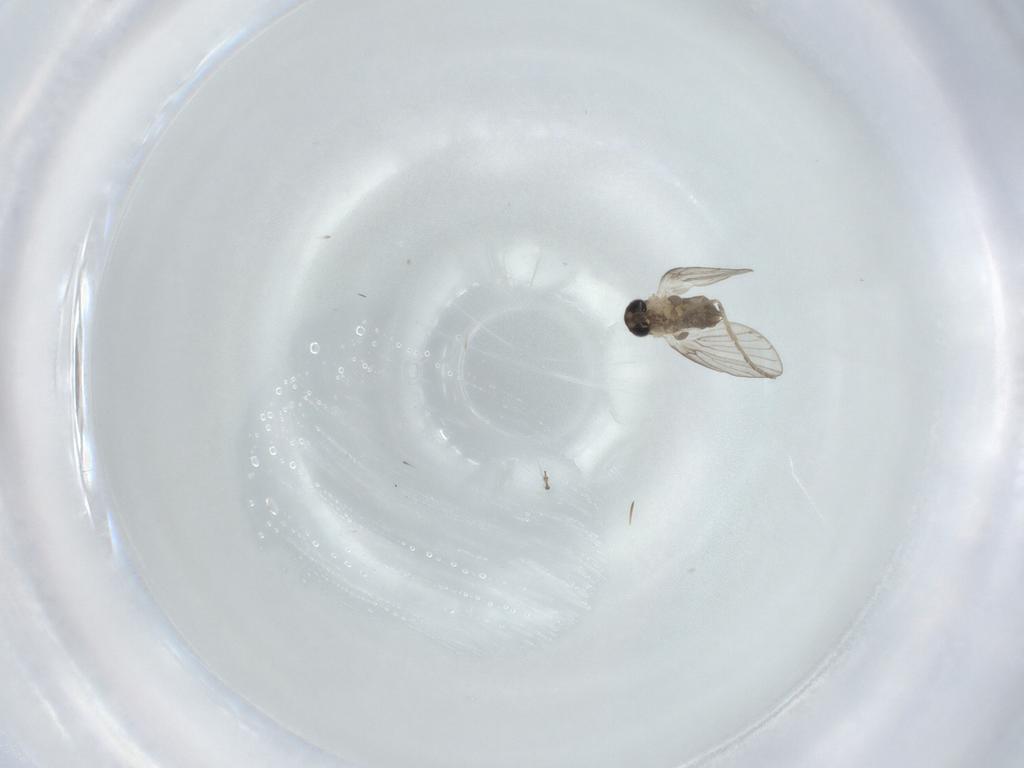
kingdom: Animalia
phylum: Arthropoda
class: Insecta
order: Diptera
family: Psychodidae
